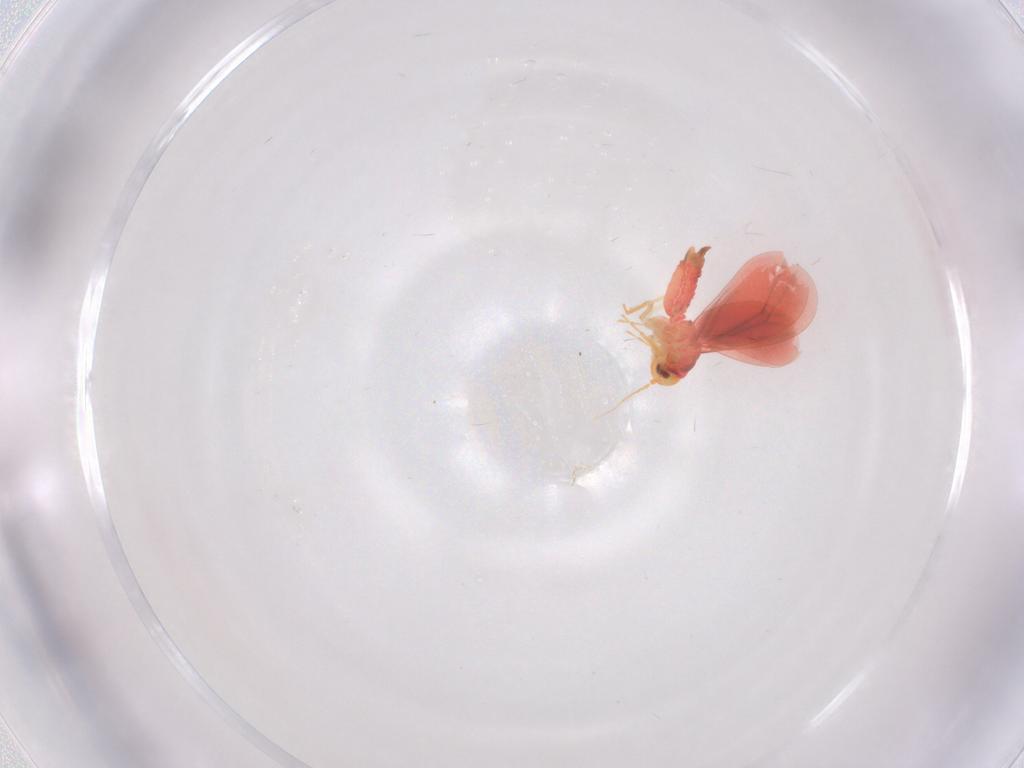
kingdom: Animalia
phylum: Arthropoda
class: Insecta
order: Hemiptera
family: Aleyrodidae
